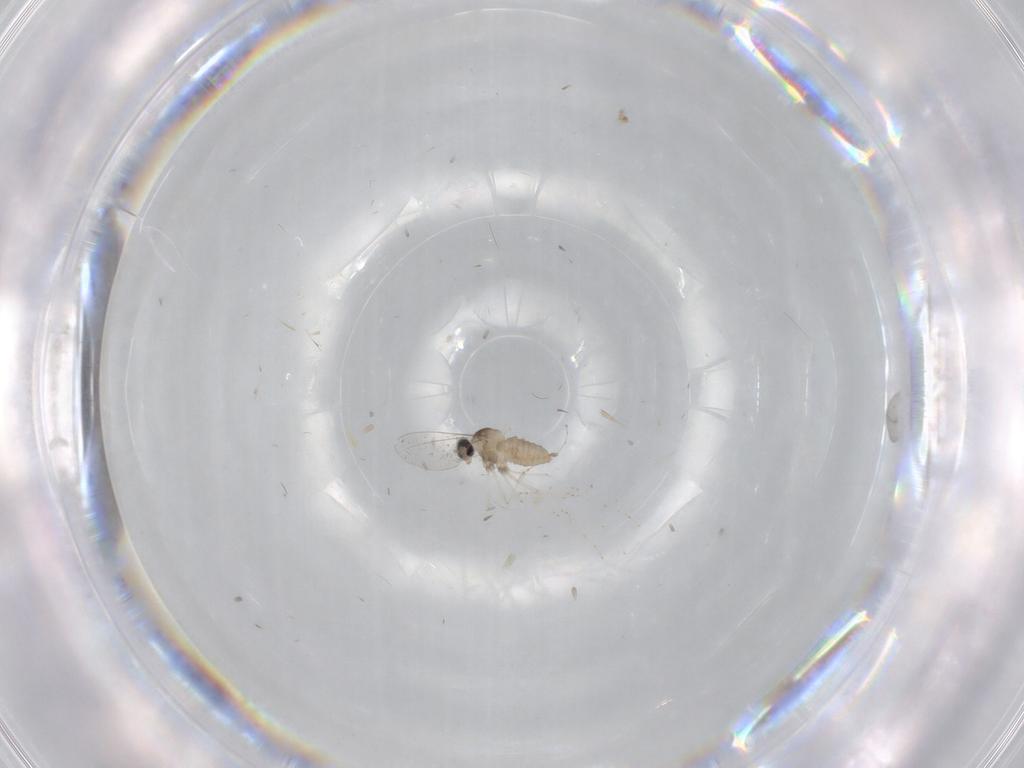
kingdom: Animalia
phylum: Arthropoda
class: Insecta
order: Diptera
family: Cecidomyiidae
